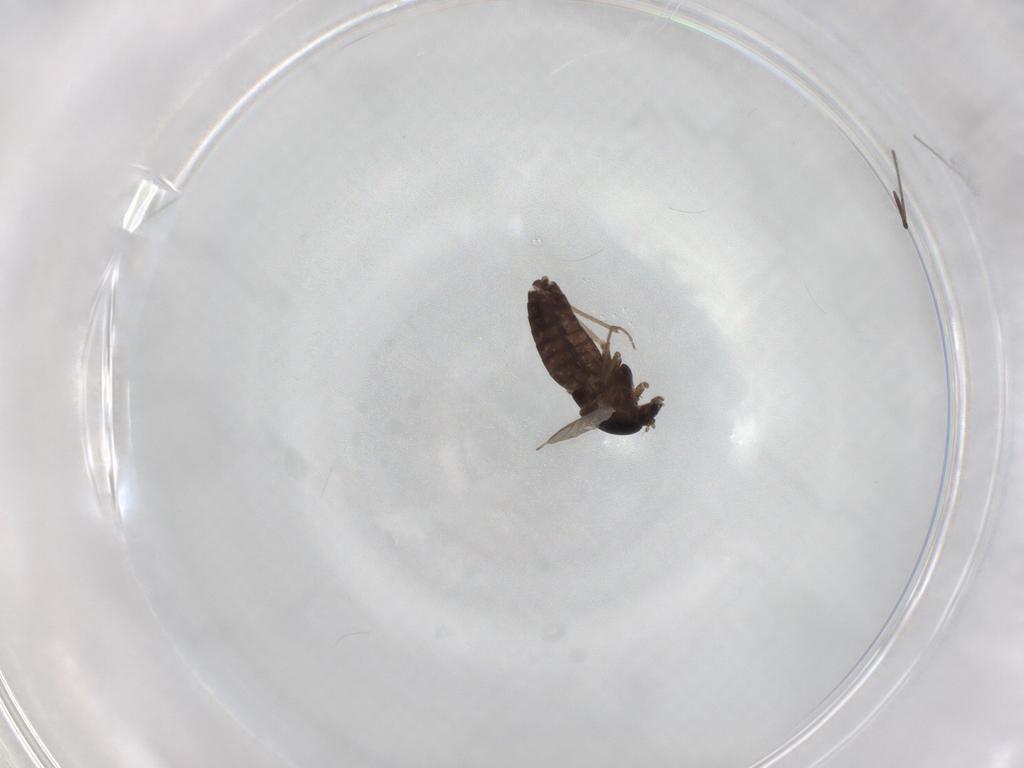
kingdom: Animalia
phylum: Arthropoda
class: Insecta
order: Diptera
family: Chironomidae
